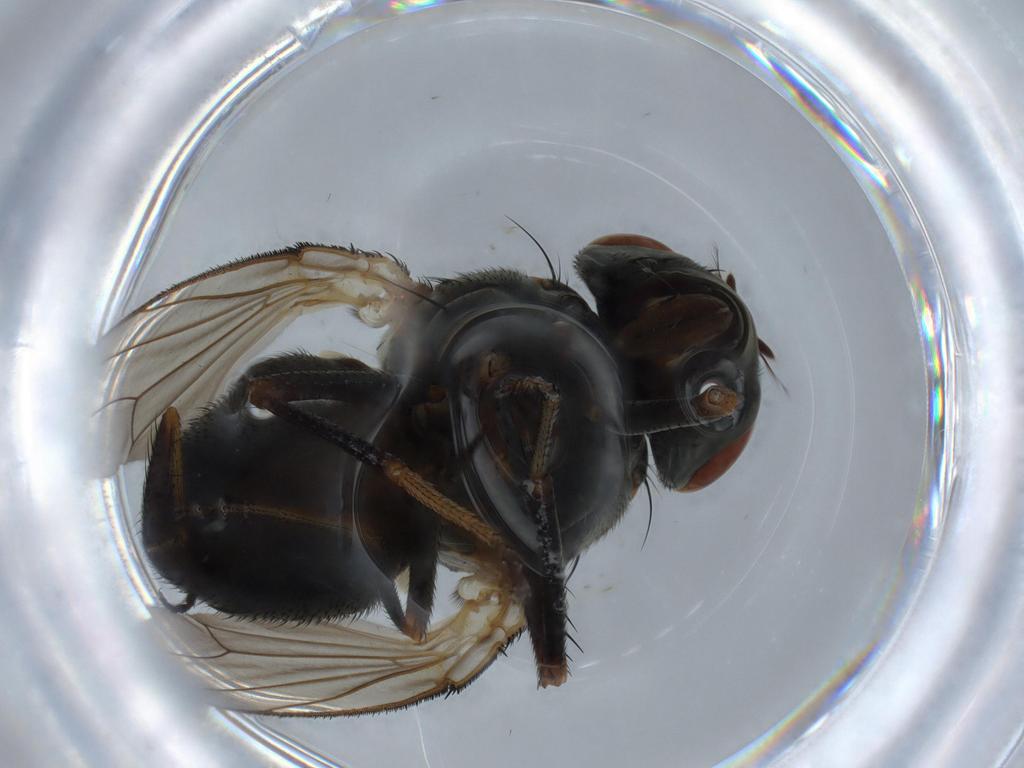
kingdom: Animalia
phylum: Arthropoda
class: Insecta
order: Diptera
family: Ephydridae
